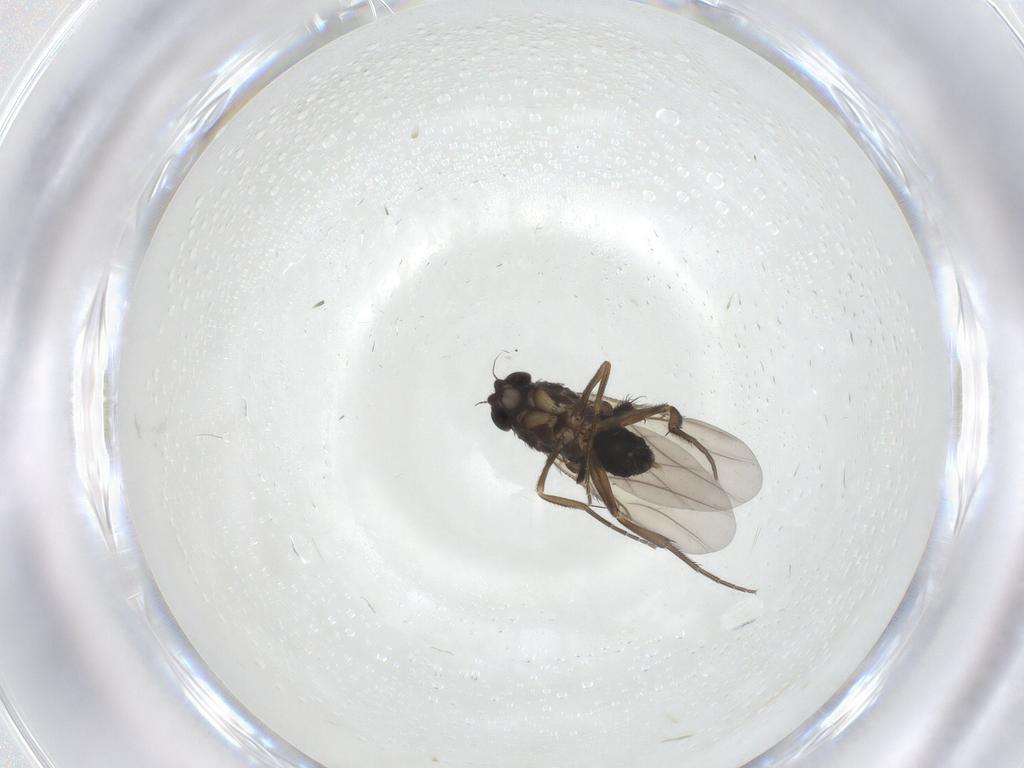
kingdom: Animalia
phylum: Arthropoda
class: Insecta
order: Diptera
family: Phoridae
